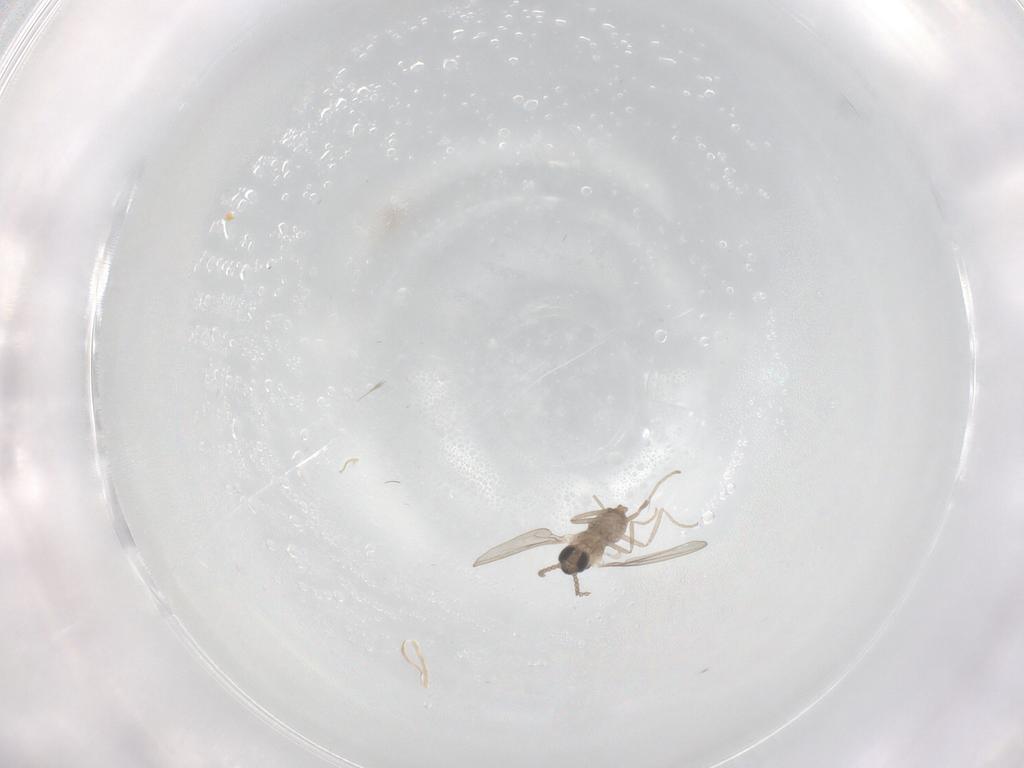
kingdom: Animalia
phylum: Arthropoda
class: Insecta
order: Diptera
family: Cecidomyiidae
